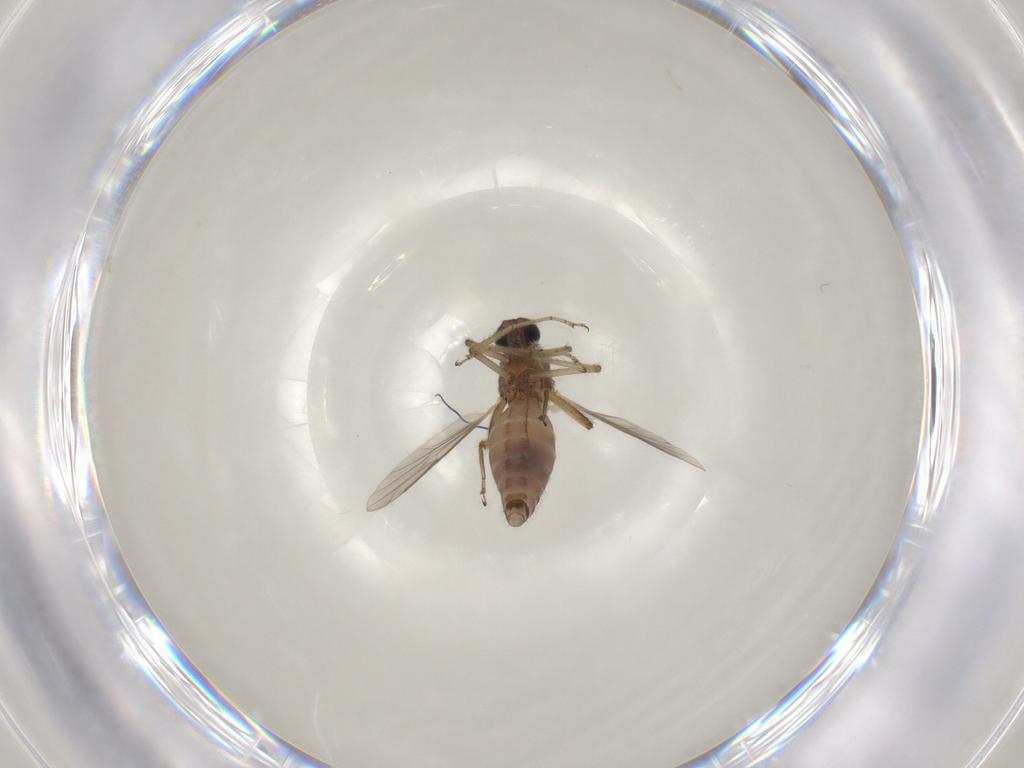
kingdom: Animalia
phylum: Arthropoda
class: Insecta
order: Diptera
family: Ceratopogonidae
